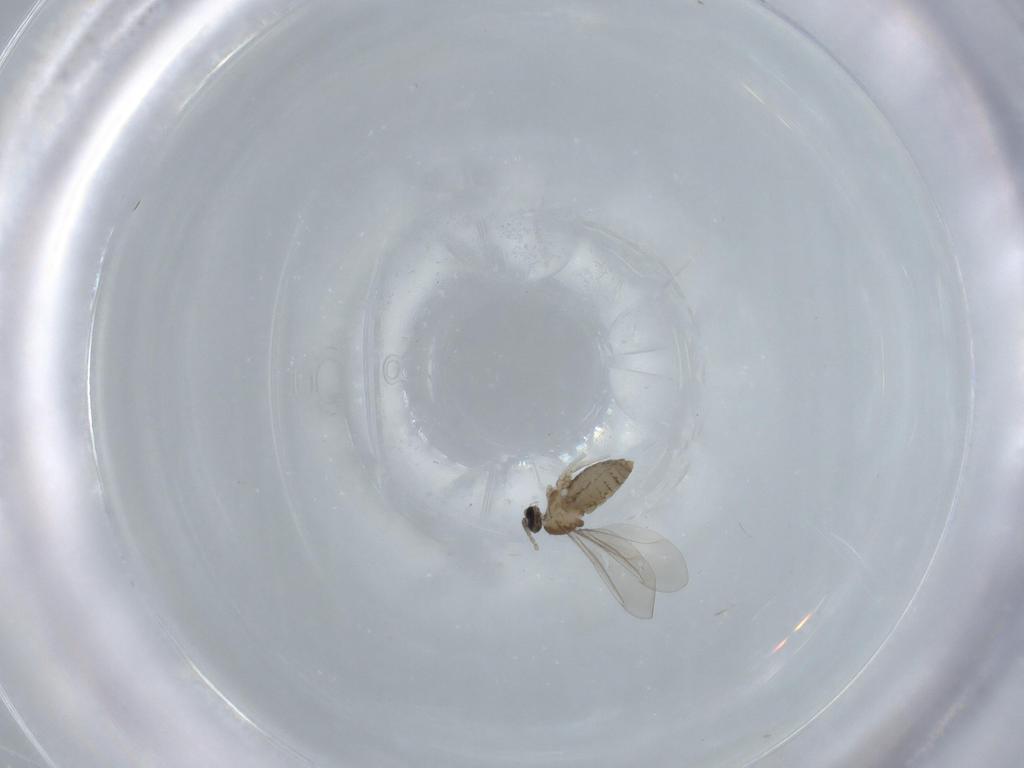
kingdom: Animalia
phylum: Arthropoda
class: Insecta
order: Diptera
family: Cecidomyiidae
